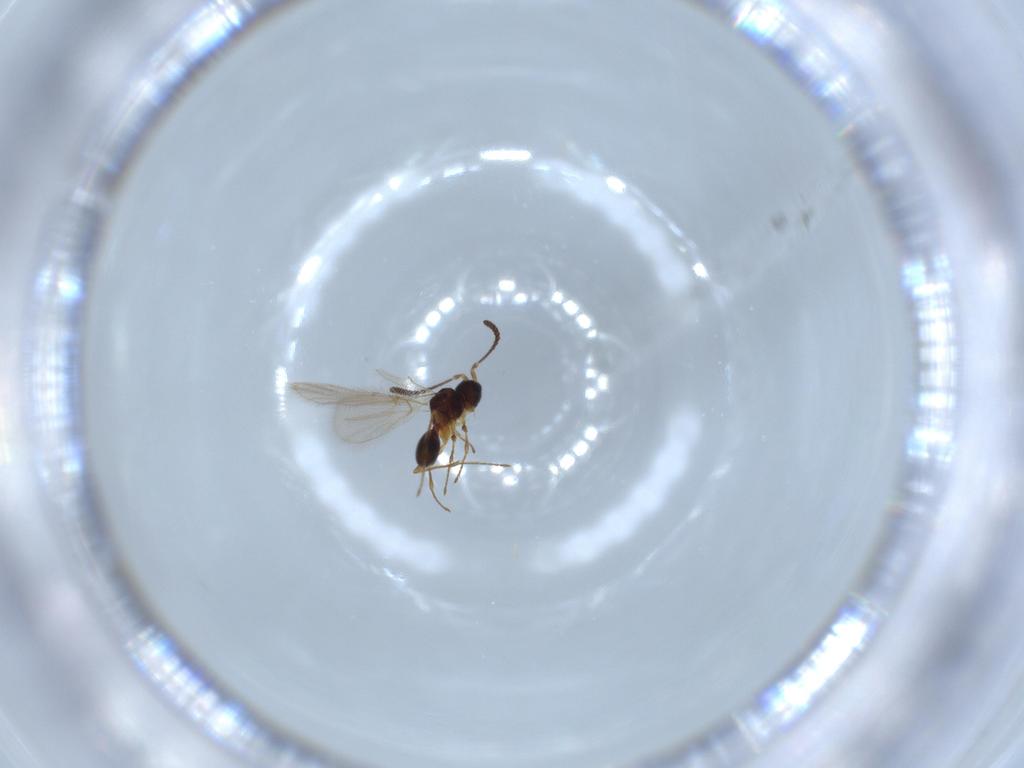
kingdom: Animalia
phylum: Arthropoda
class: Insecta
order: Hymenoptera
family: Diapriidae
